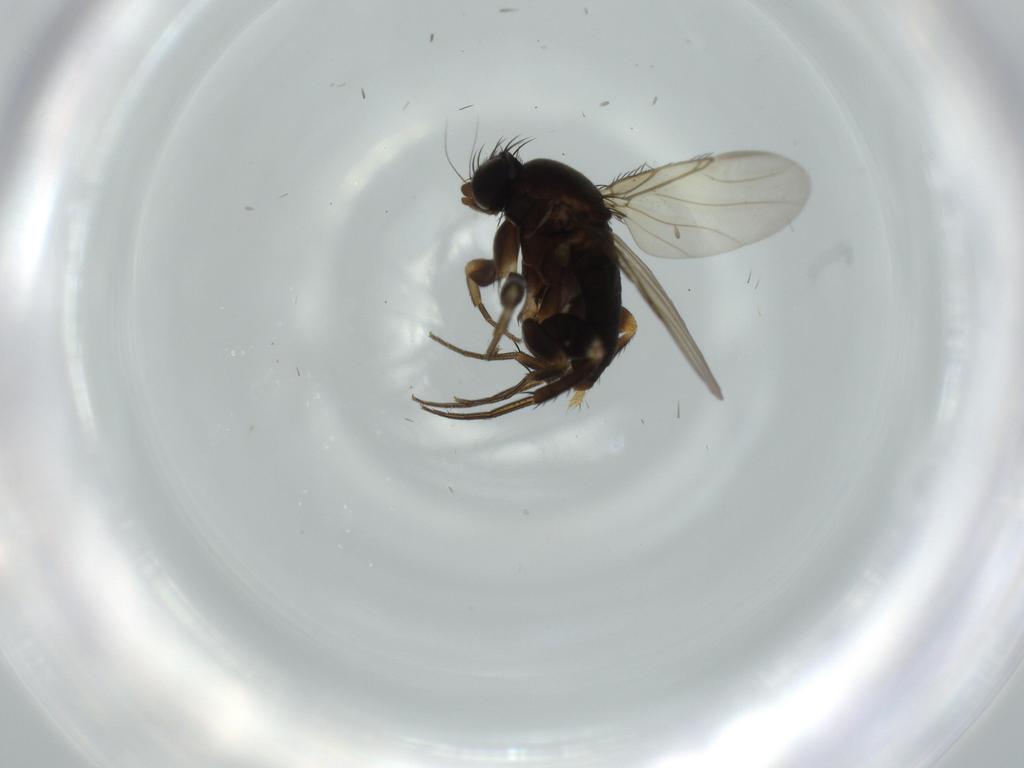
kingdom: Animalia
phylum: Arthropoda
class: Insecta
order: Diptera
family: Phoridae
